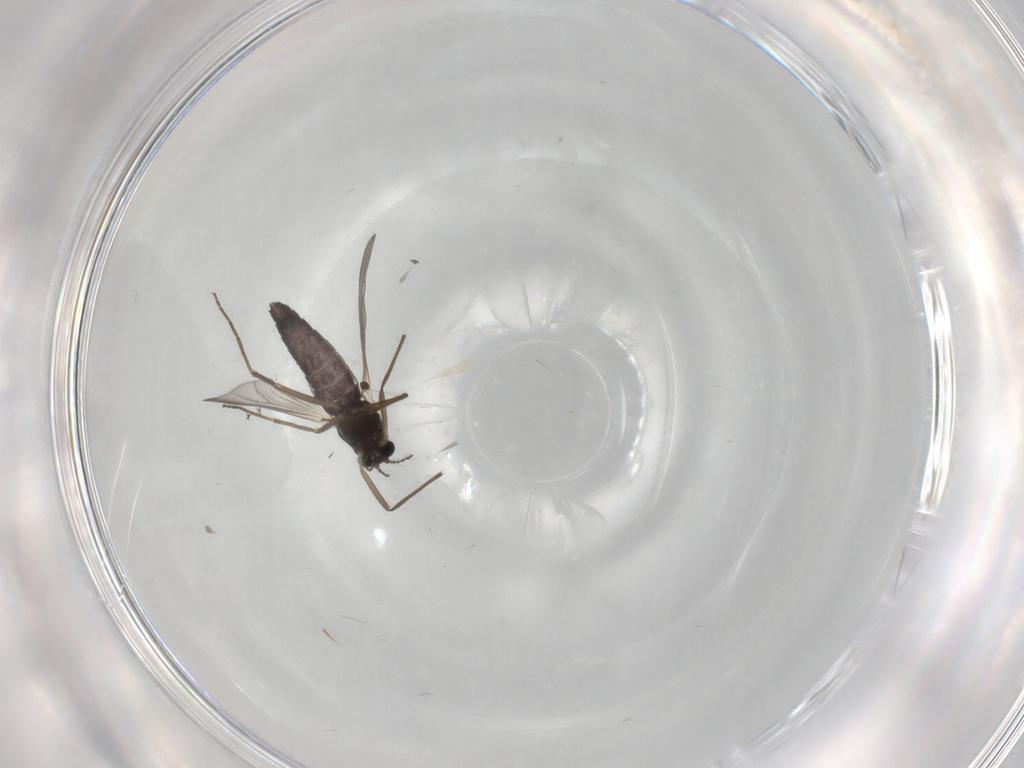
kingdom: Animalia
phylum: Arthropoda
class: Insecta
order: Diptera
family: Chironomidae
